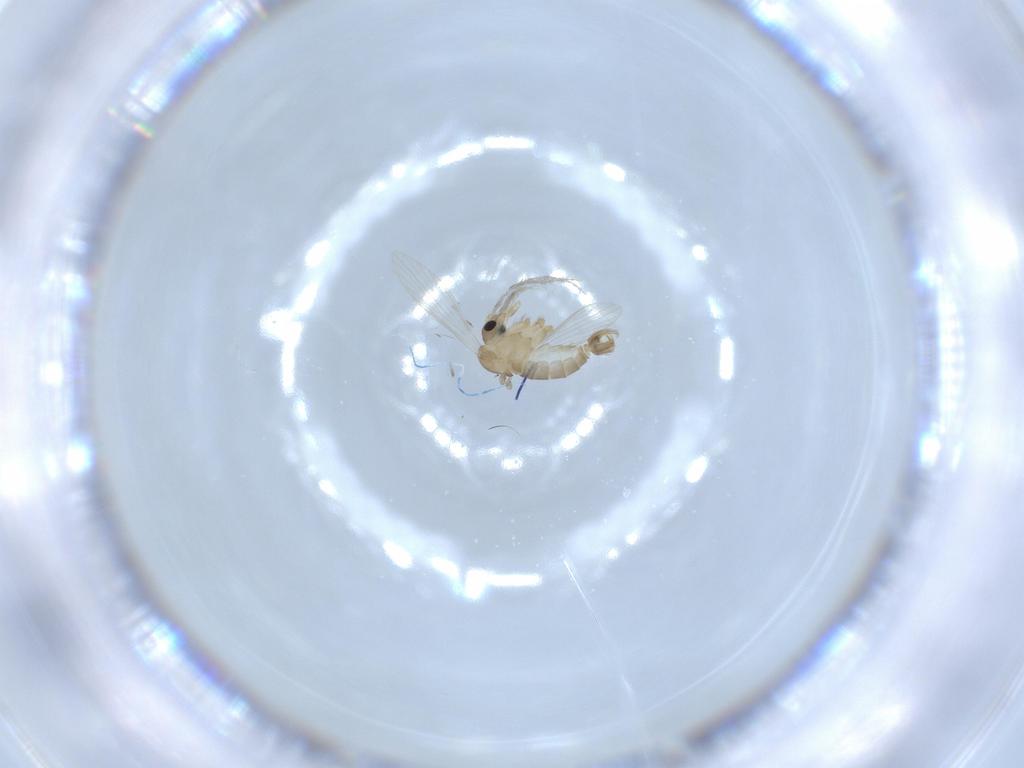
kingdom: Animalia
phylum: Arthropoda
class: Insecta
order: Diptera
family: Psychodidae
